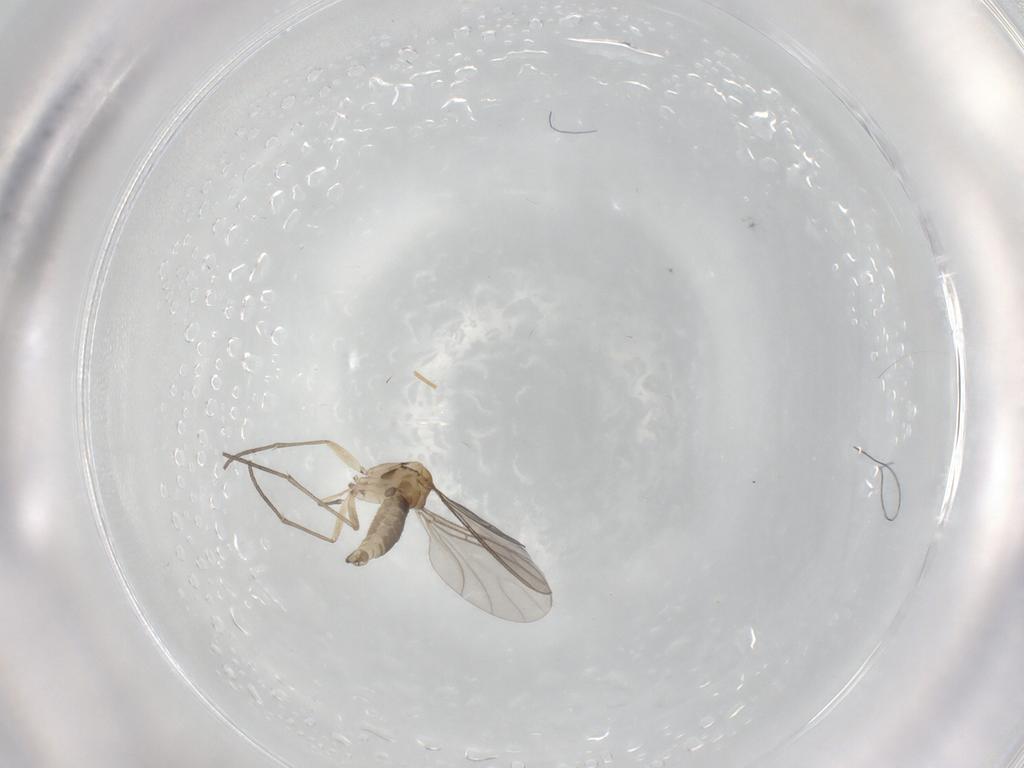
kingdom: Animalia
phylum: Arthropoda
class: Insecta
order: Diptera
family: Sciaridae
